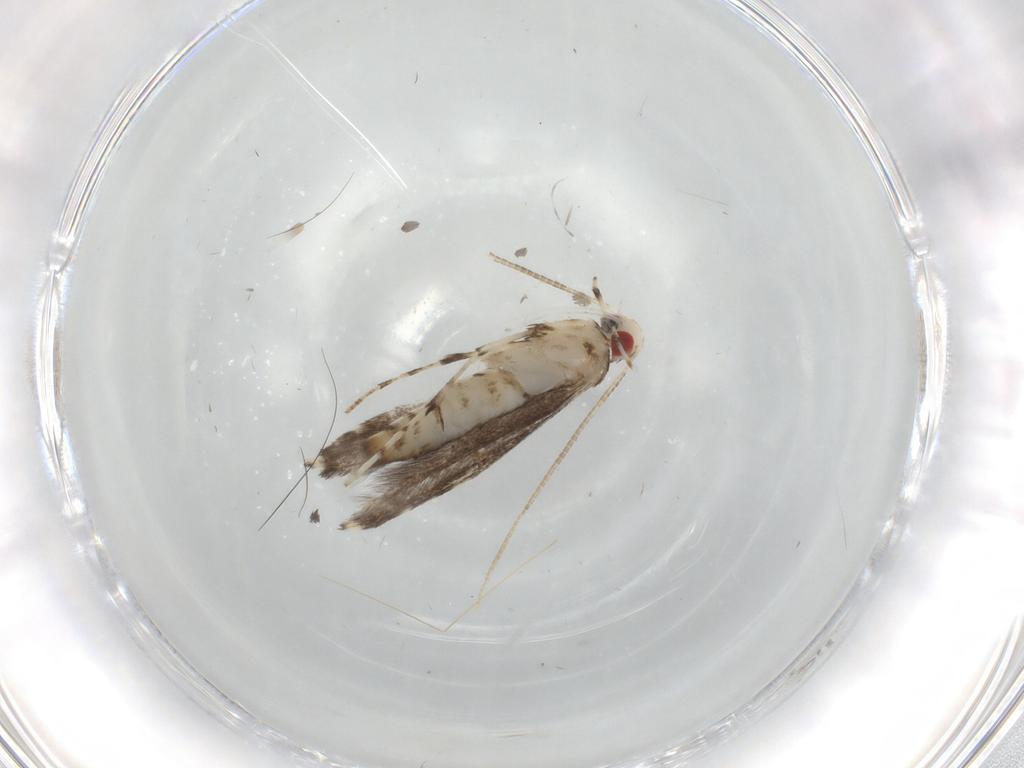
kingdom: Animalia
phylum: Arthropoda
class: Insecta
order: Lepidoptera
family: Gracillariidae
